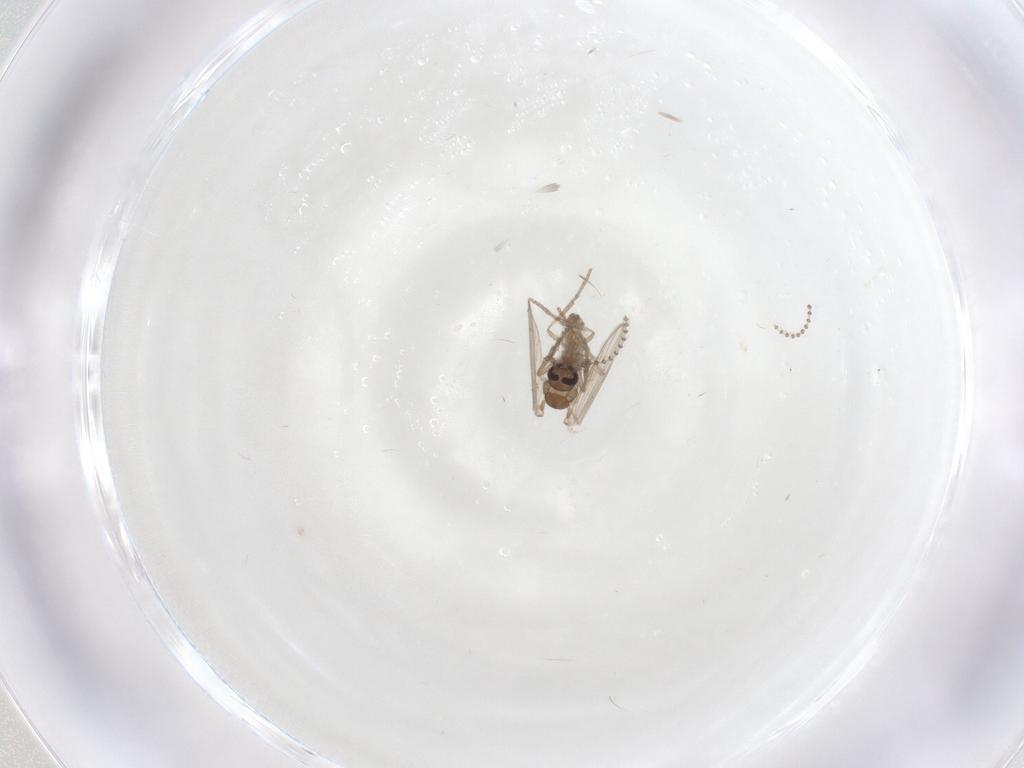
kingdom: Animalia
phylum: Arthropoda
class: Insecta
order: Diptera
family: Psychodidae
